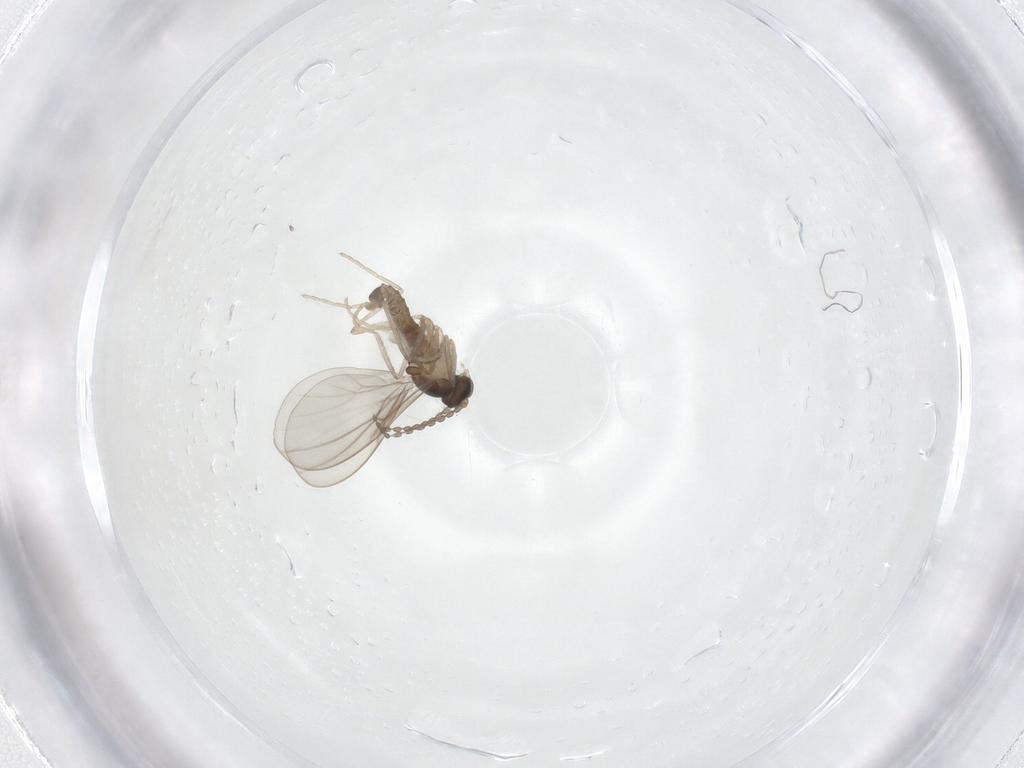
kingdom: Animalia
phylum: Arthropoda
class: Insecta
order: Diptera
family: Cecidomyiidae
